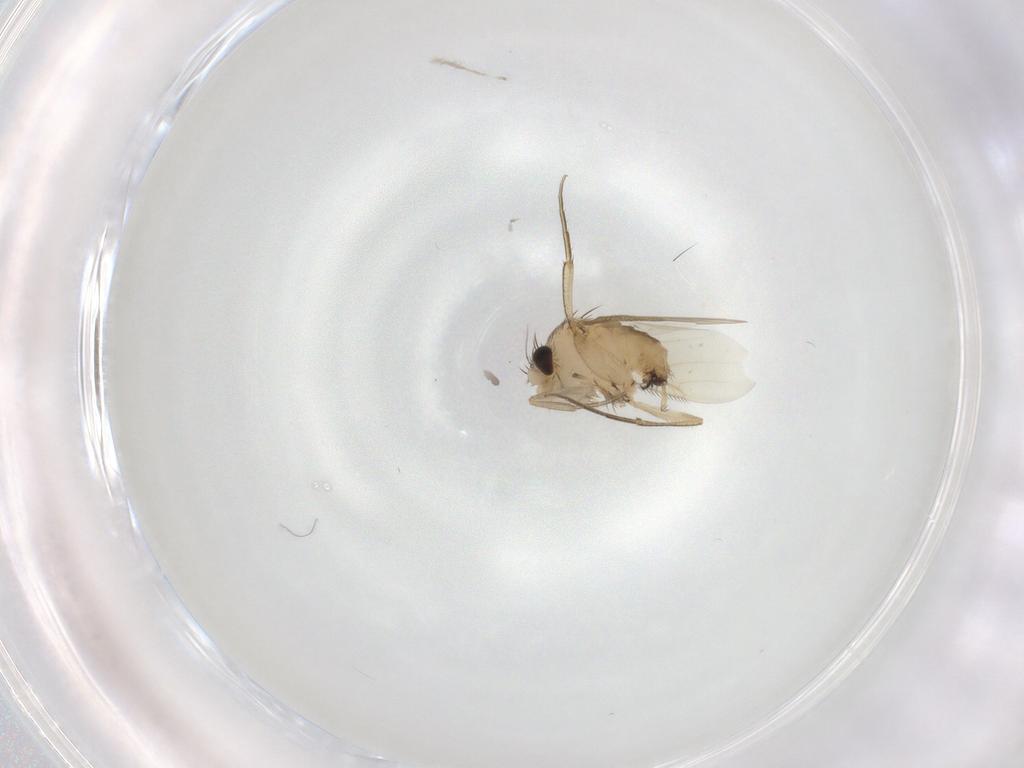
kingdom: Animalia
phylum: Arthropoda
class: Insecta
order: Diptera
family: Phoridae
